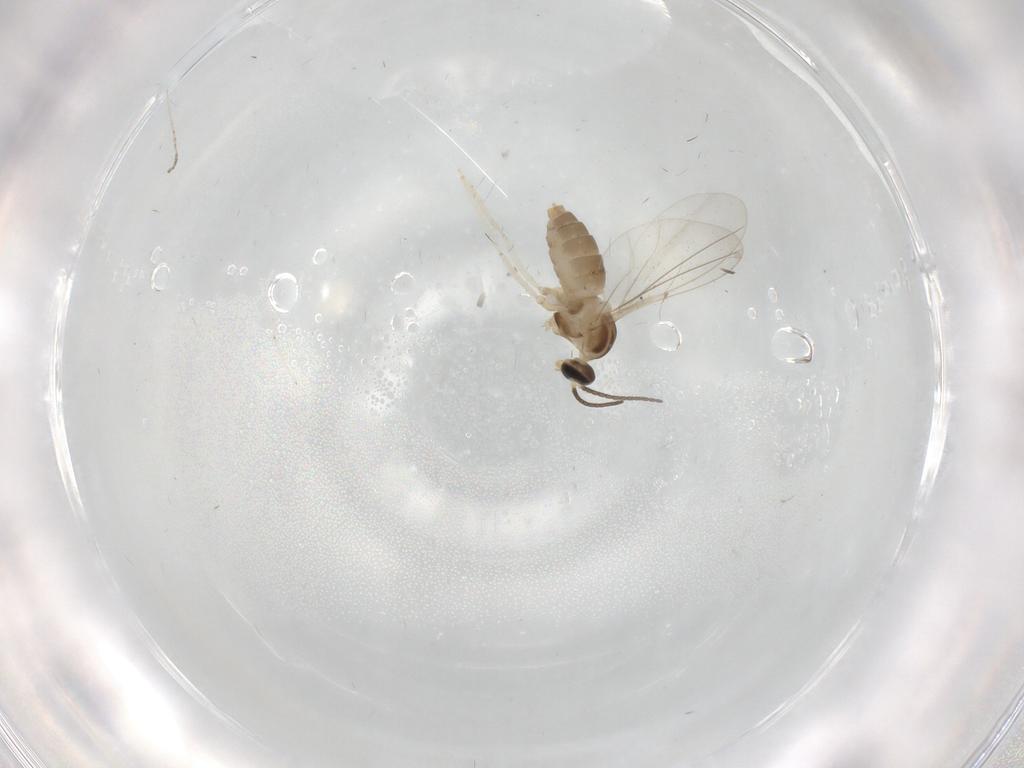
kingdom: Animalia
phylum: Arthropoda
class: Insecta
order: Diptera
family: Cecidomyiidae
